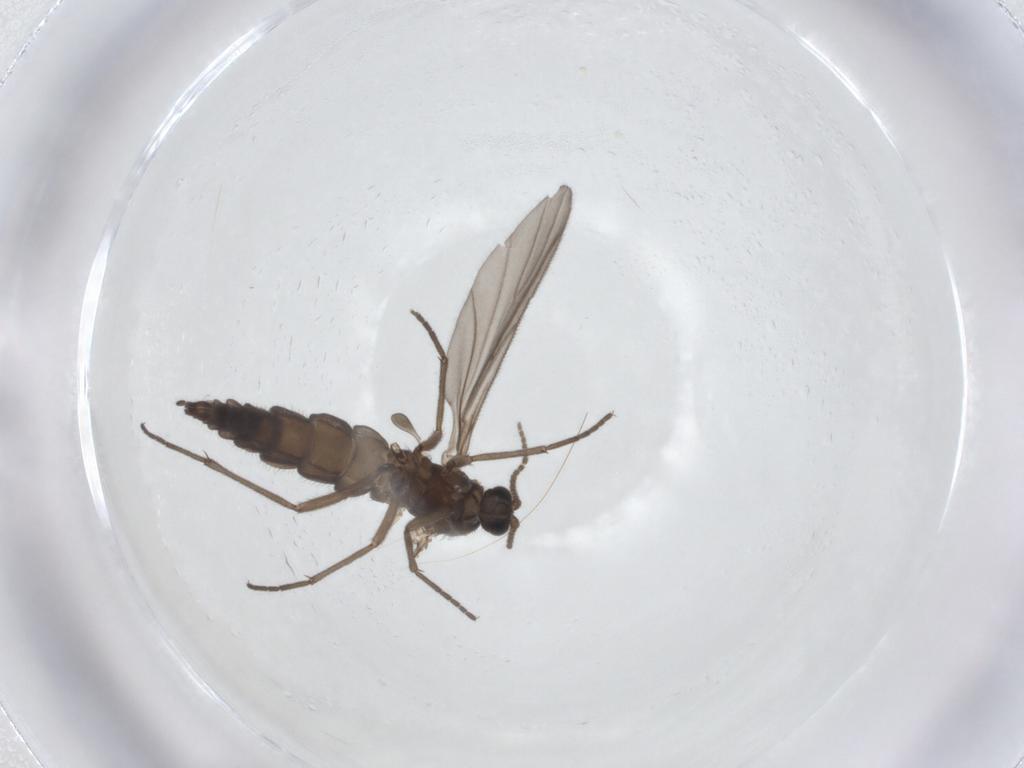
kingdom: Animalia
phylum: Arthropoda
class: Insecta
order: Diptera
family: Sciaridae
